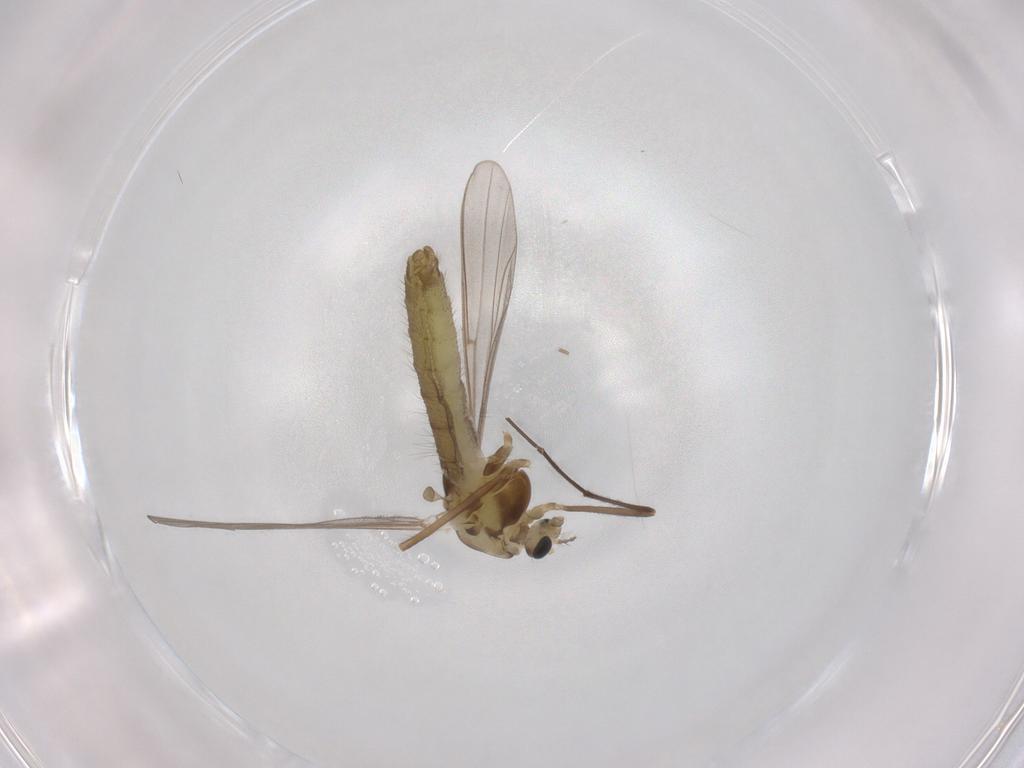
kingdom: Animalia
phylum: Arthropoda
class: Insecta
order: Diptera
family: Chironomidae
